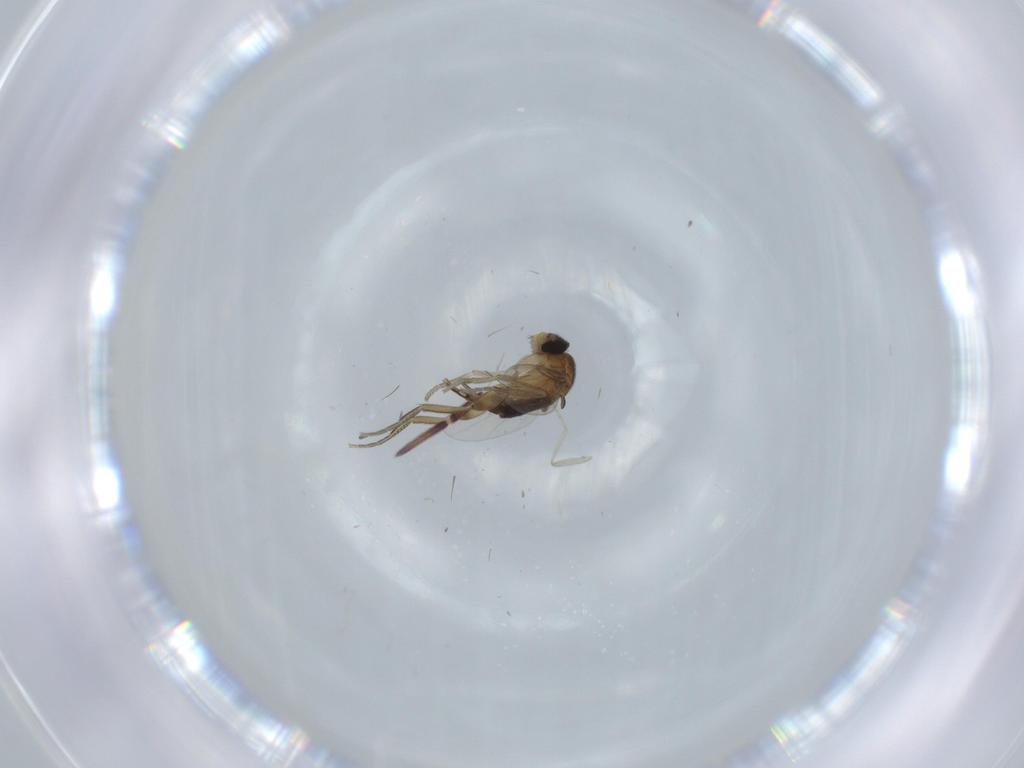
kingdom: Animalia
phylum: Arthropoda
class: Insecta
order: Diptera
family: Phoridae
